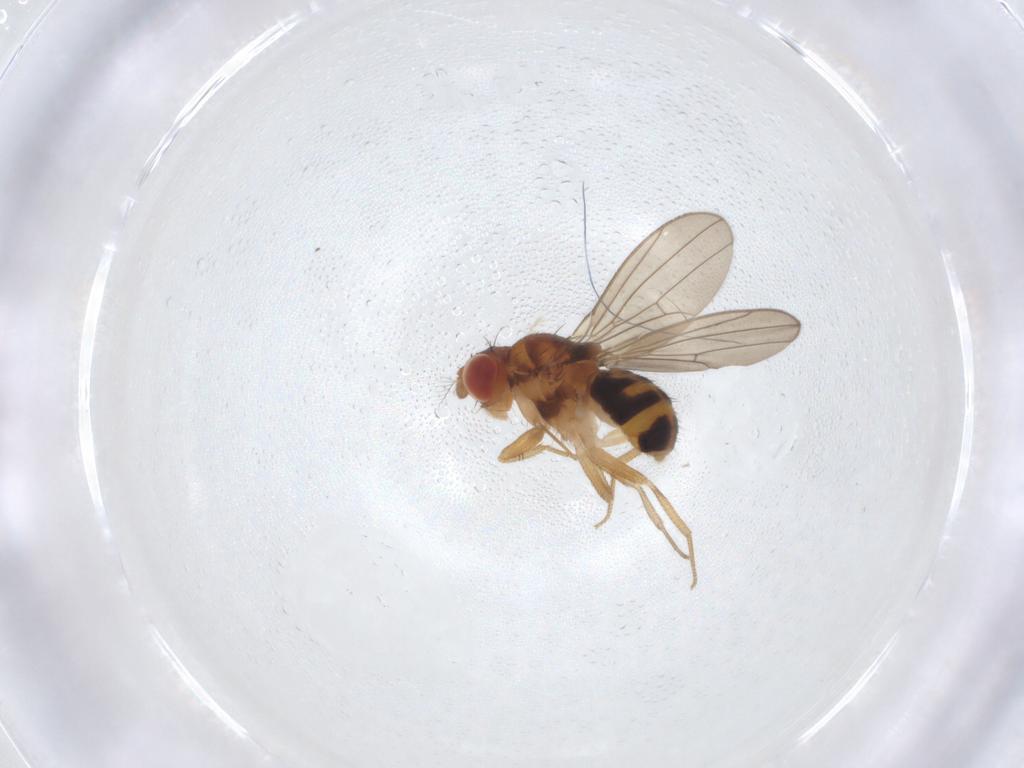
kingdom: Animalia
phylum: Arthropoda
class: Insecta
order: Diptera
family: Drosophilidae
